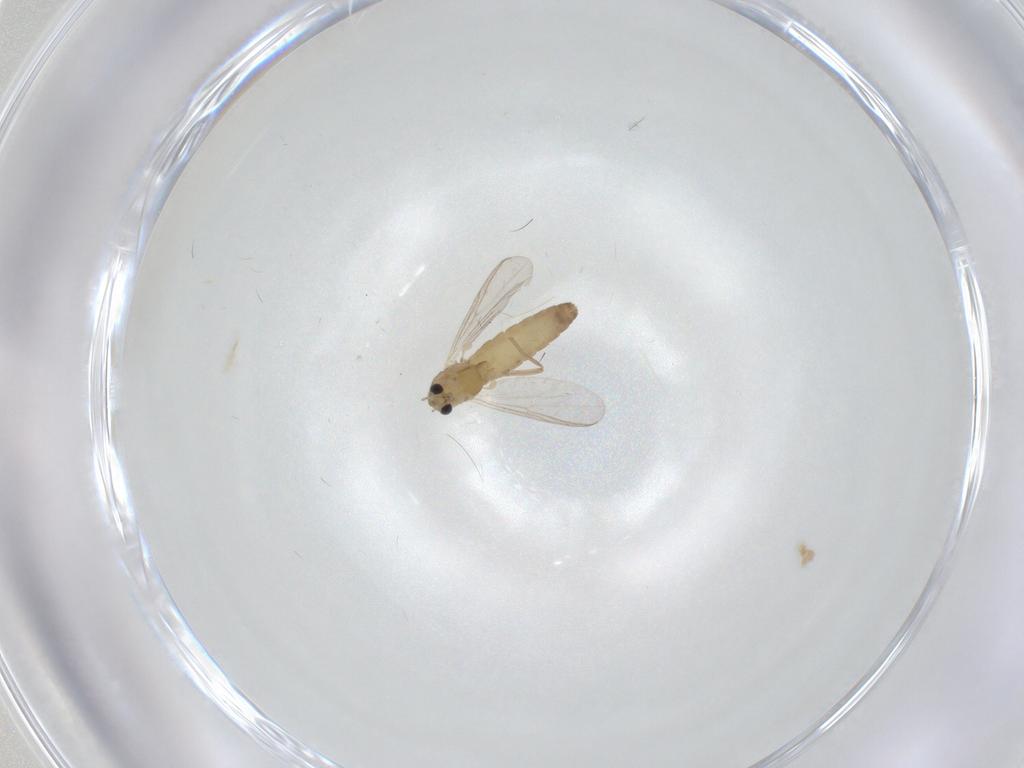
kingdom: Animalia
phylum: Arthropoda
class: Insecta
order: Diptera
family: Chironomidae
